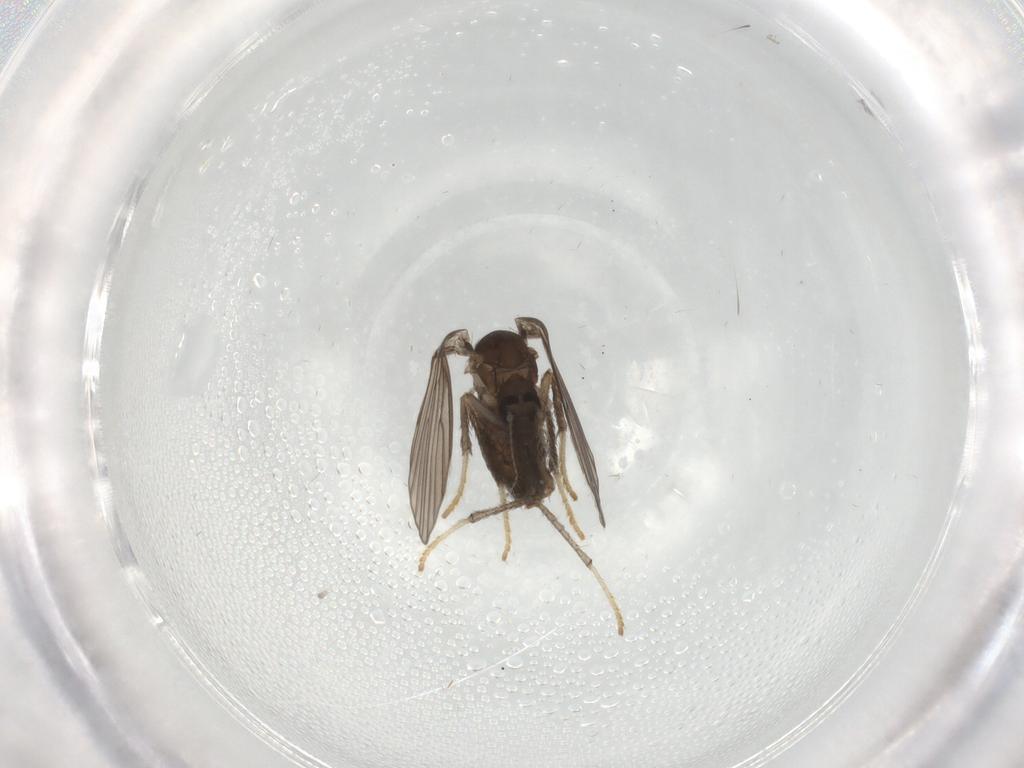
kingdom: Animalia
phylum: Arthropoda
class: Insecta
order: Diptera
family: Psychodidae
